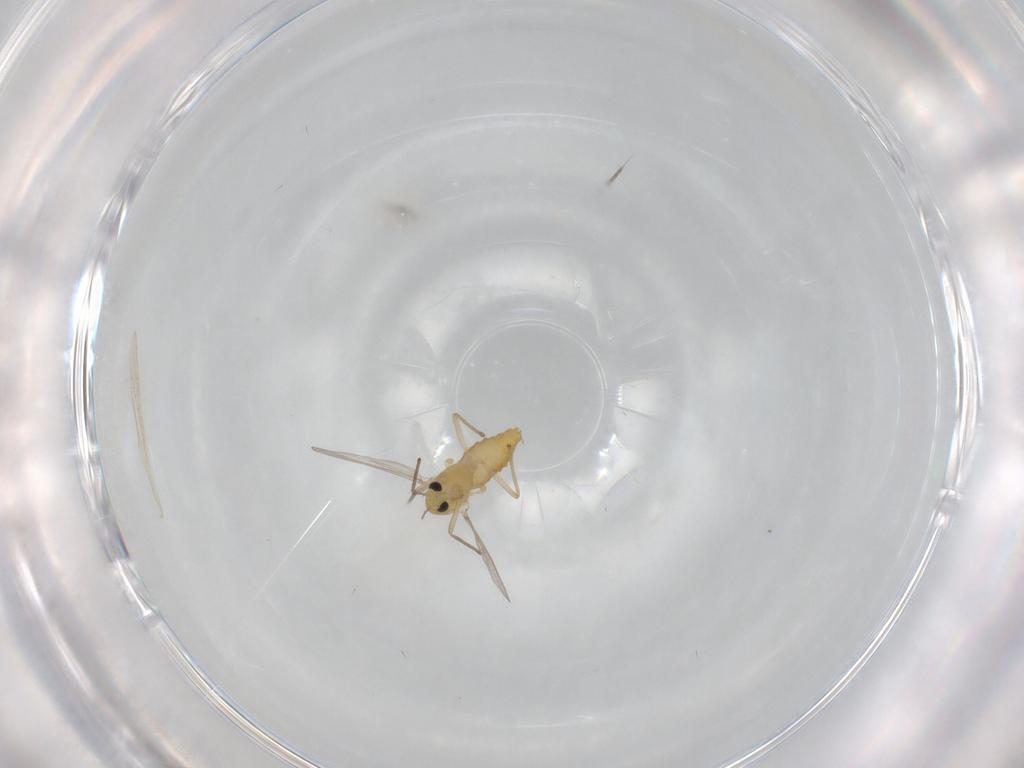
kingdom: Animalia
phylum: Arthropoda
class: Insecta
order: Diptera
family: Ceratopogonidae
